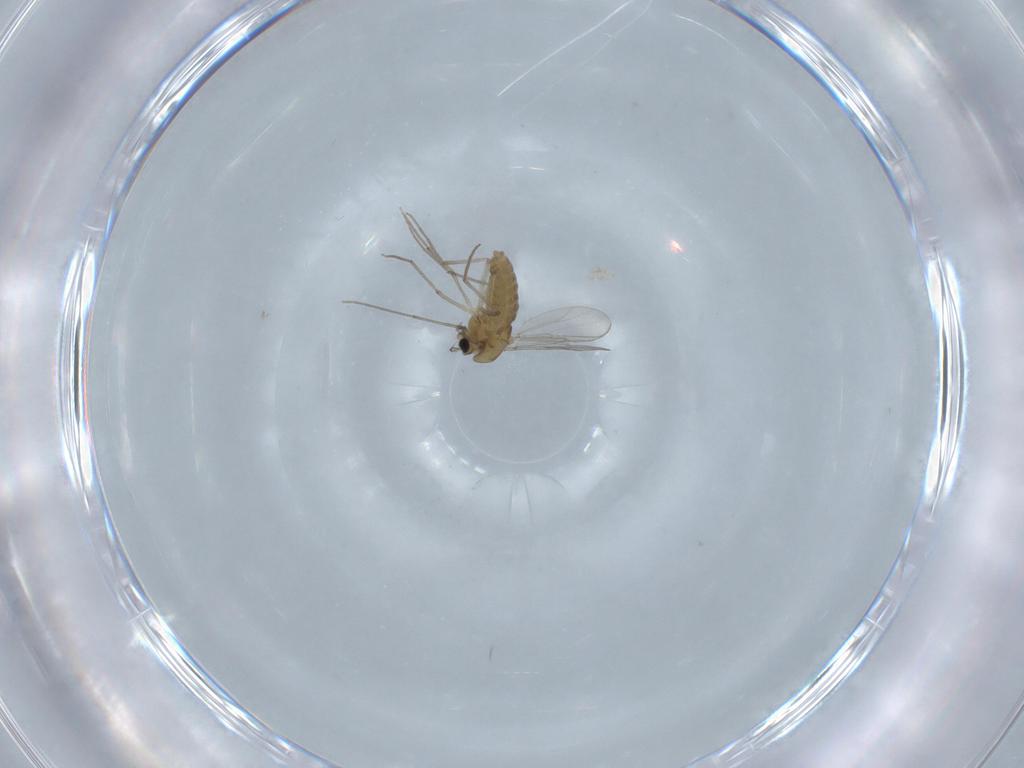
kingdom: Animalia
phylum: Arthropoda
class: Insecta
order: Diptera
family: Chironomidae
